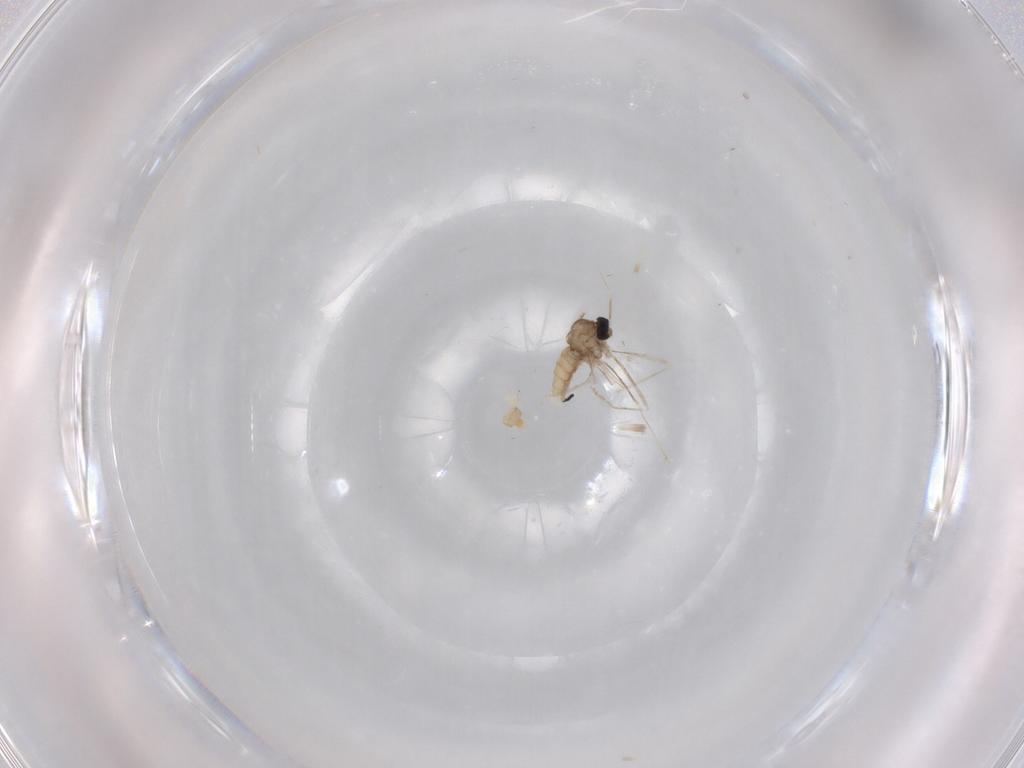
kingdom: Animalia
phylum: Arthropoda
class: Insecta
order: Diptera
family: Cecidomyiidae
